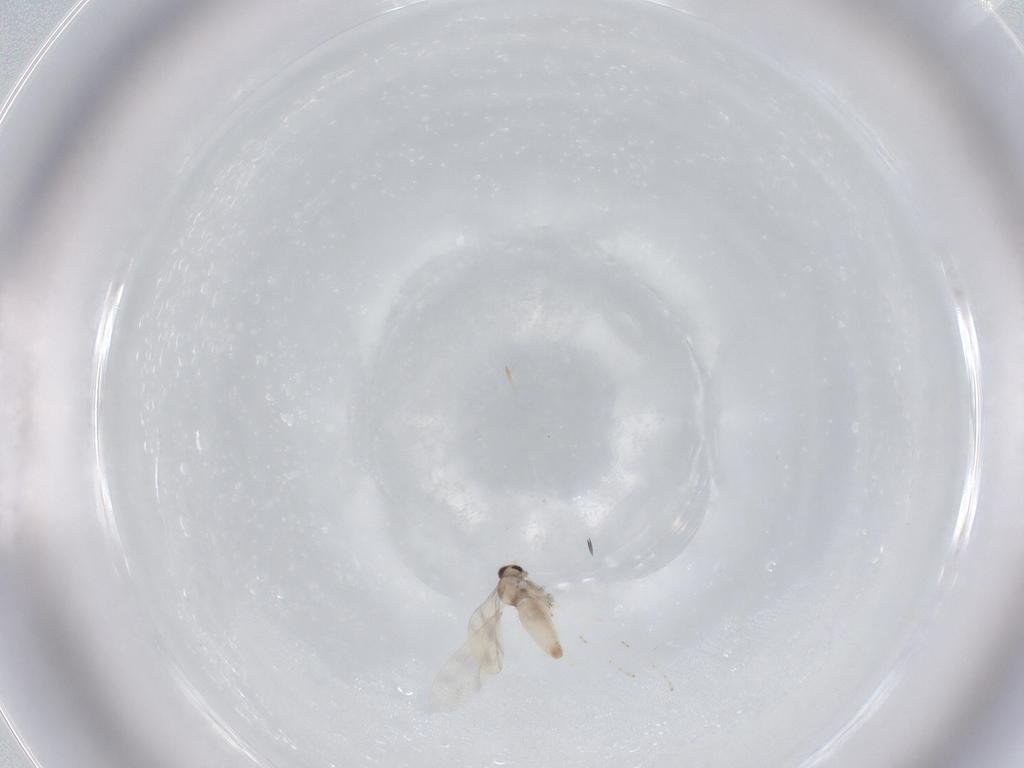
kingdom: Animalia
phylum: Arthropoda
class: Insecta
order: Diptera
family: Cecidomyiidae
